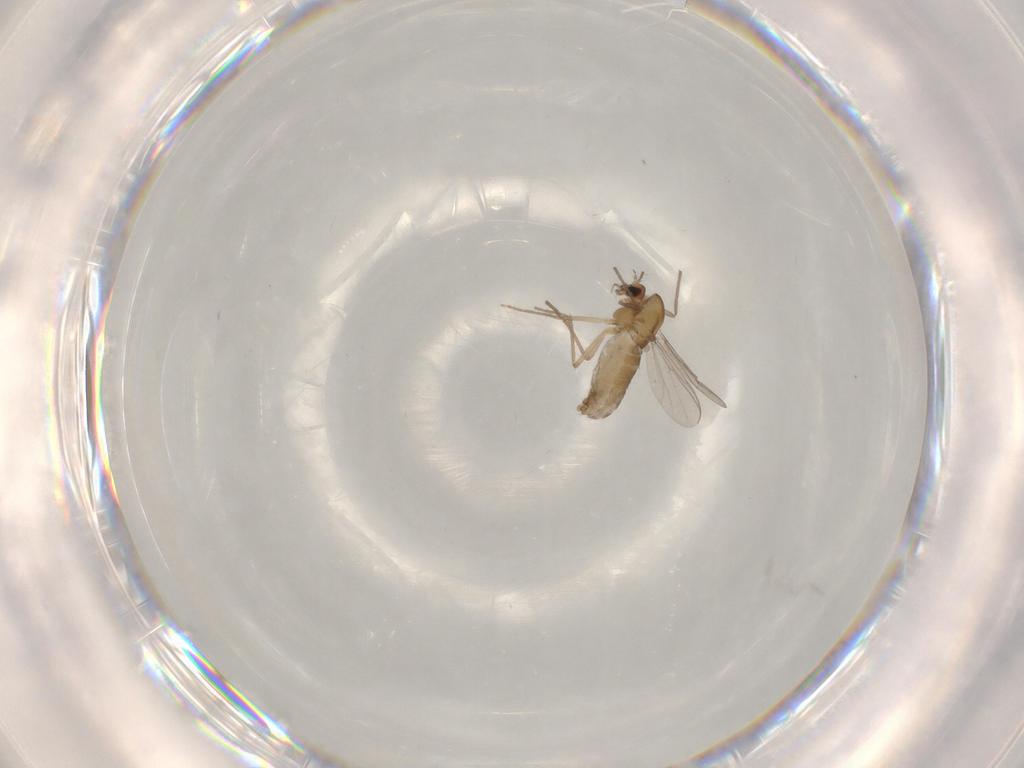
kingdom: Animalia
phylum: Arthropoda
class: Insecta
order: Diptera
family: Chironomidae
